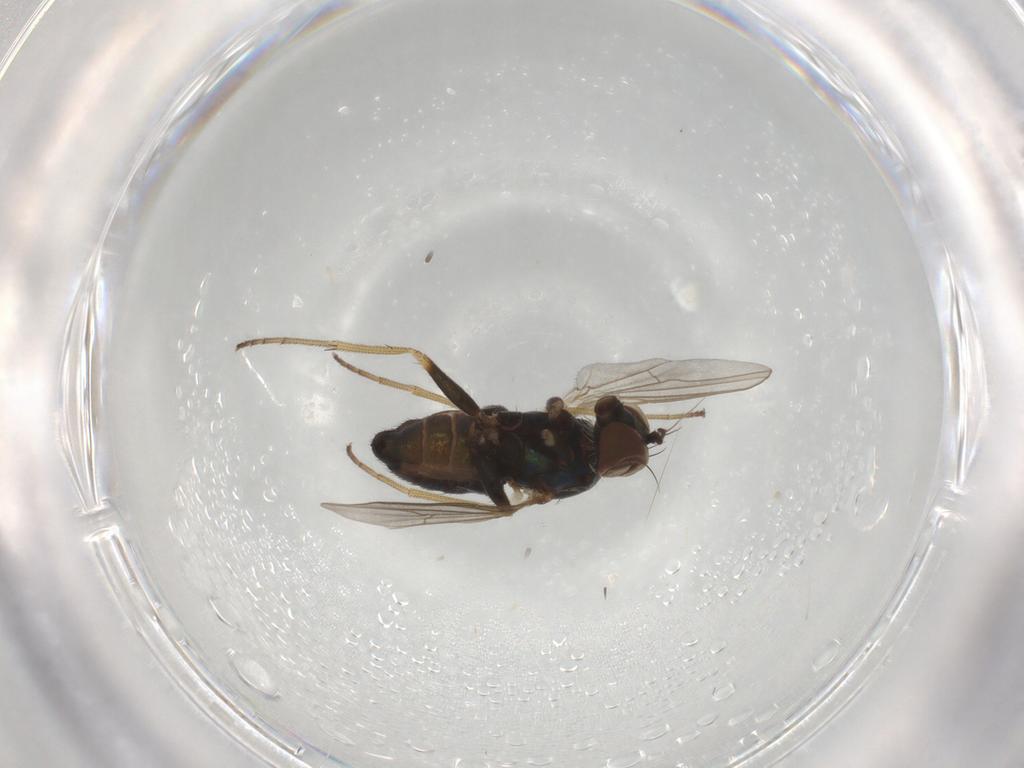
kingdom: Animalia
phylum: Arthropoda
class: Insecta
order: Diptera
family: Dolichopodidae
